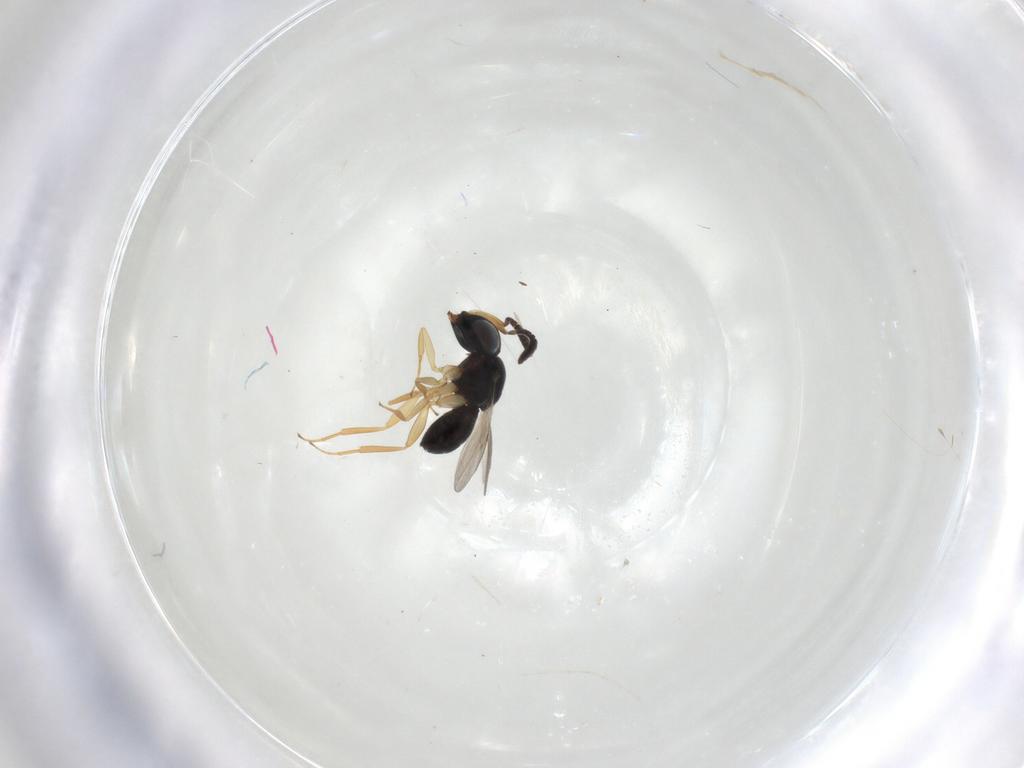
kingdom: Animalia
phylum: Arthropoda
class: Insecta
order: Hymenoptera
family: Scelionidae
